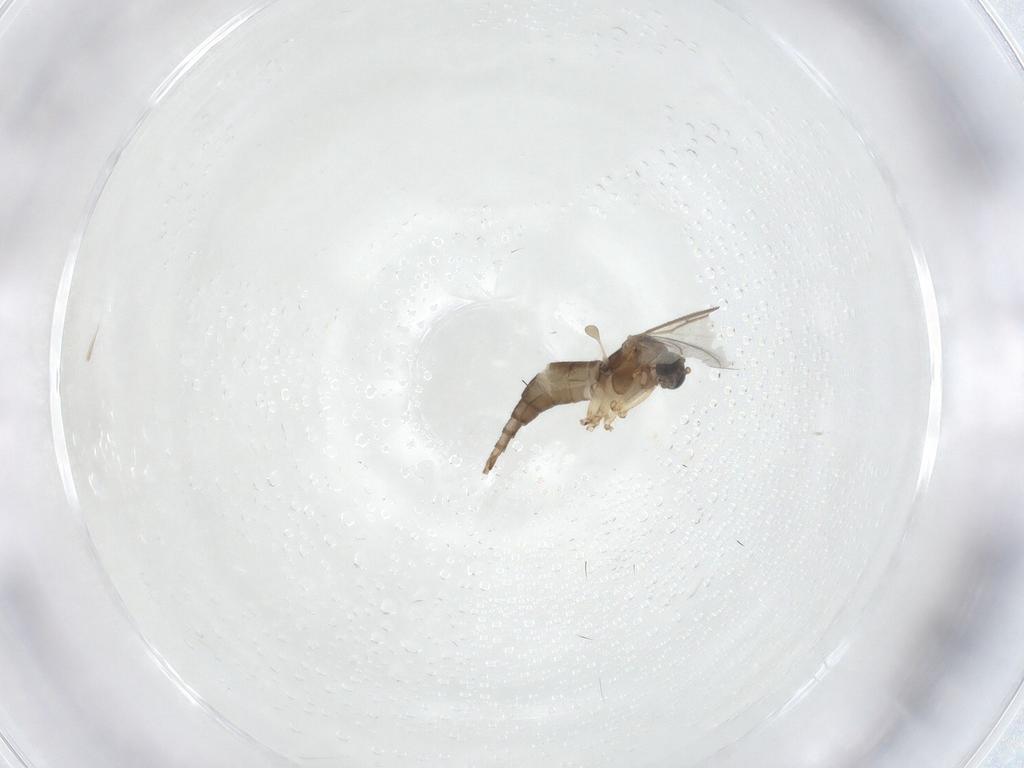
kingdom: Animalia
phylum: Arthropoda
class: Insecta
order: Diptera
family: Sciaridae
